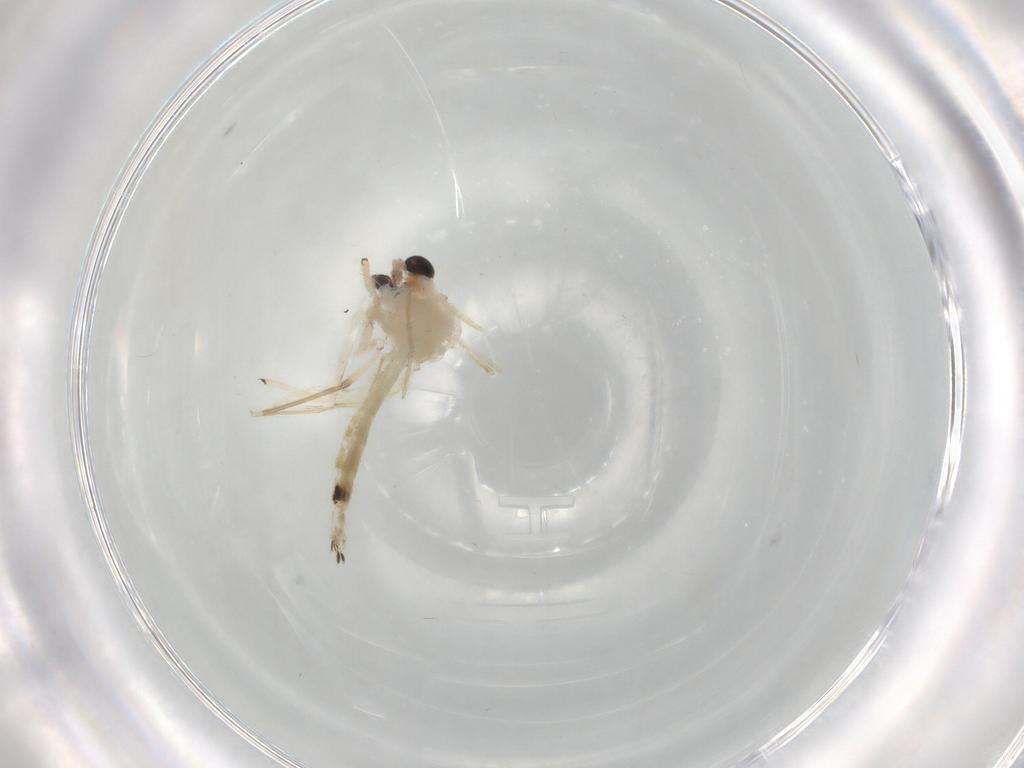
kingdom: Animalia
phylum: Arthropoda
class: Insecta
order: Diptera
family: Chironomidae
